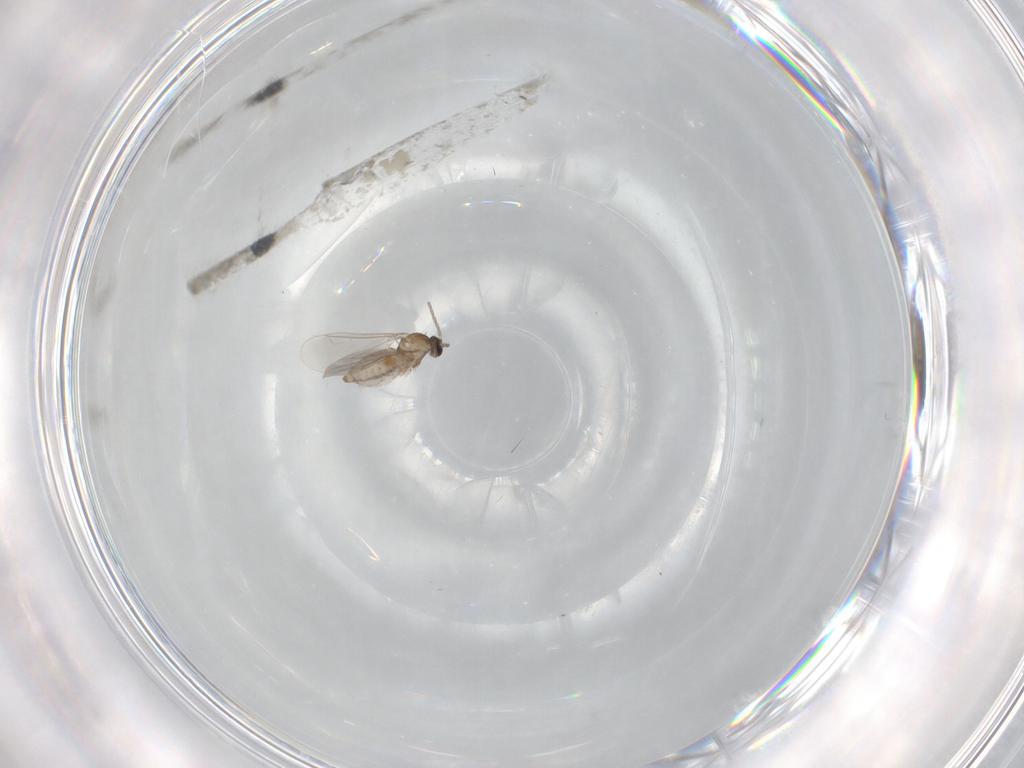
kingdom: Animalia
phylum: Arthropoda
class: Insecta
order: Diptera
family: Cecidomyiidae
